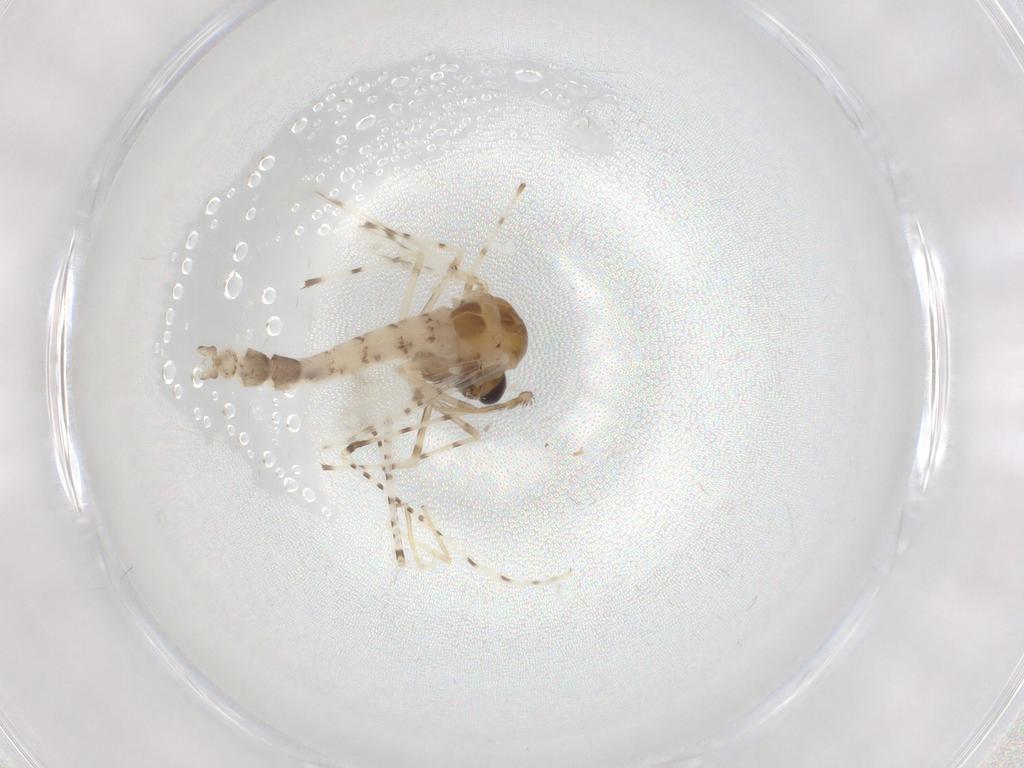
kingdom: Animalia
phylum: Arthropoda
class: Insecta
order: Diptera
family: Chironomidae
